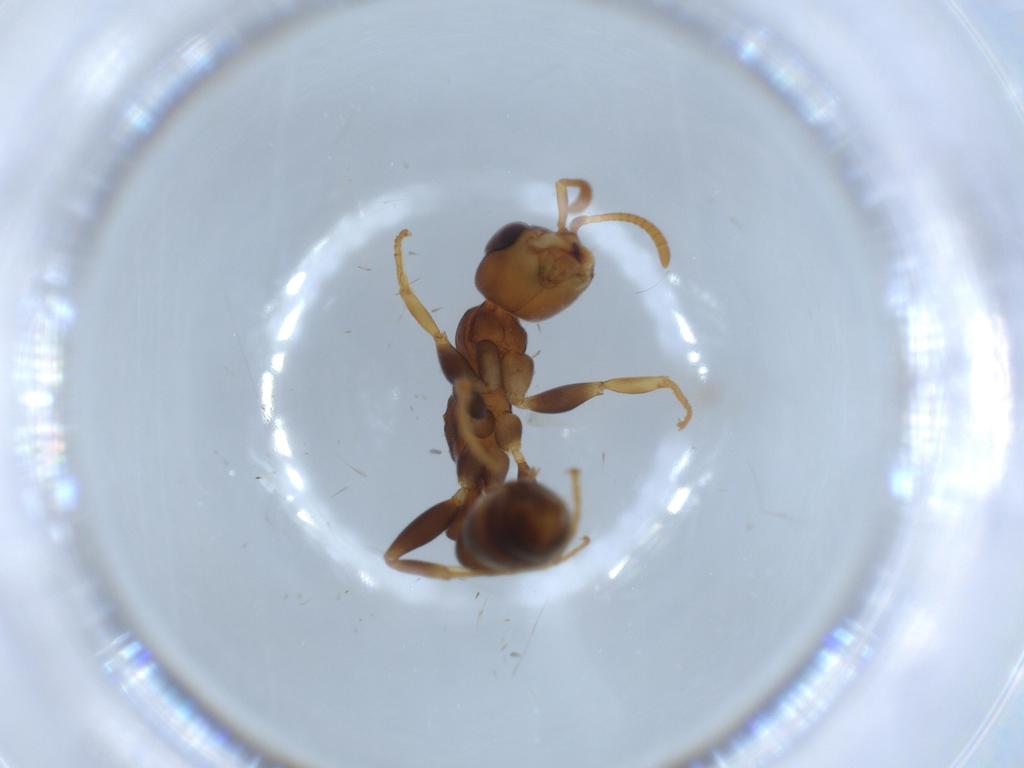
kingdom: Animalia
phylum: Arthropoda
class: Insecta
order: Hymenoptera
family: Formicidae
